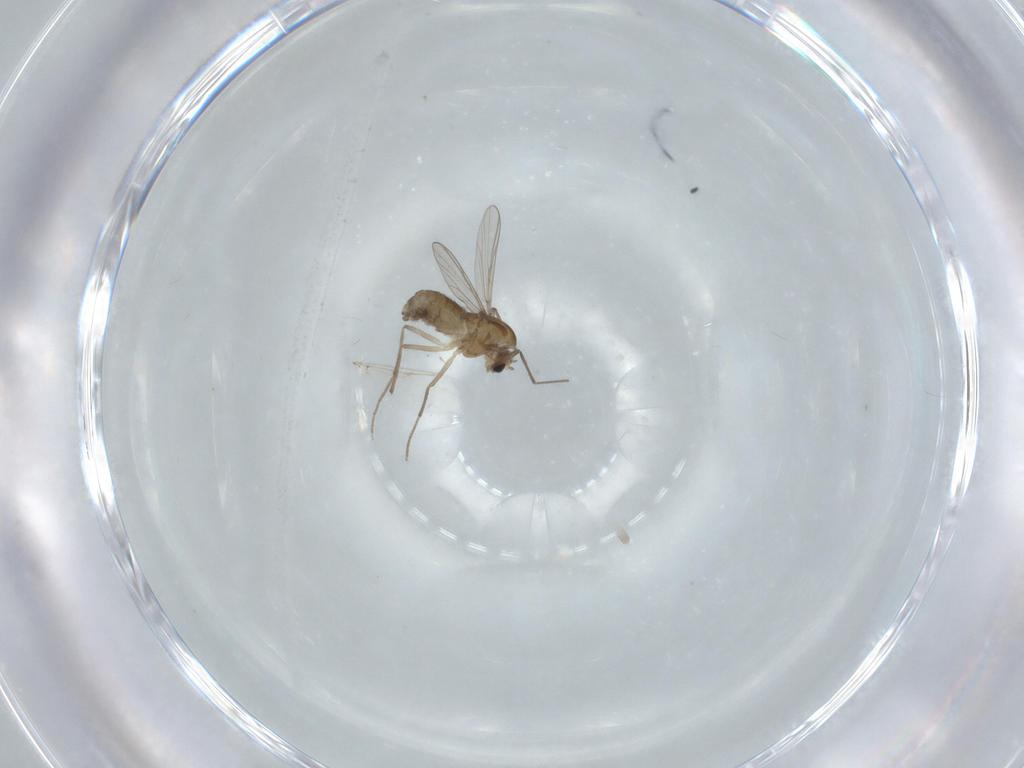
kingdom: Animalia
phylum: Arthropoda
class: Insecta
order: Diptera
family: Chironomidae
